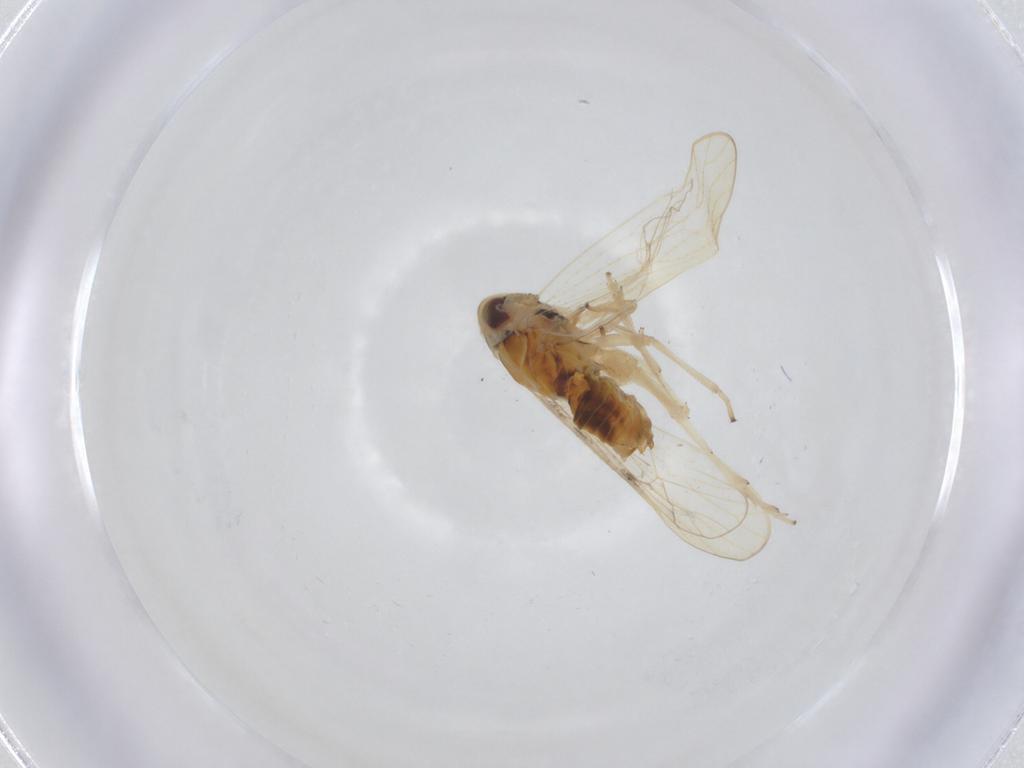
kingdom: Animalia
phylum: Arthropoda
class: Insecta
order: Hemiptera
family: Delphacidae
